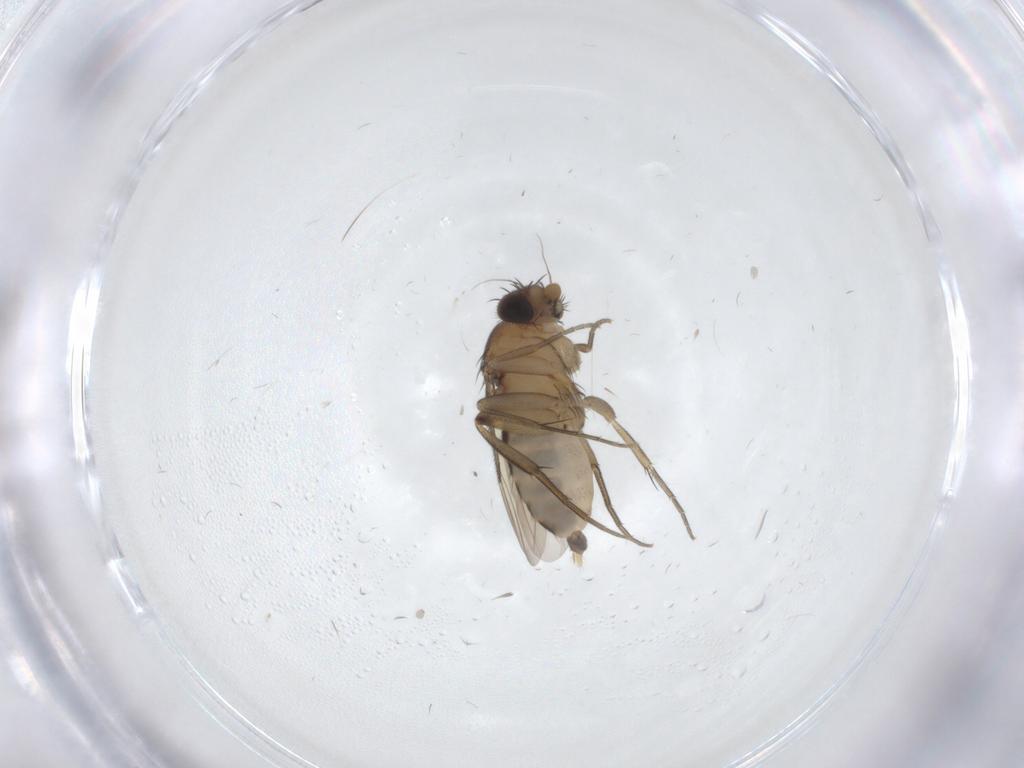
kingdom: Animalia
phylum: Arthropoda
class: Insecta
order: Diptera
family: Phoridae
